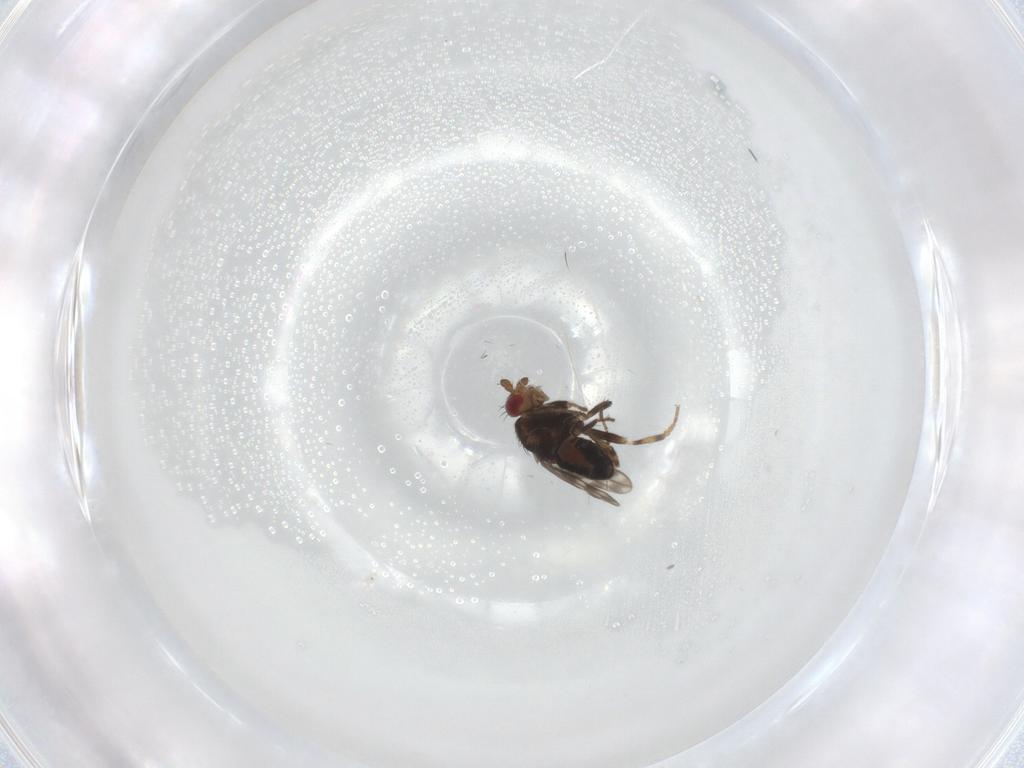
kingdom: Animalia
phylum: Arthropoda
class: Insecta
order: Diptera
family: Sphaeroceridae
